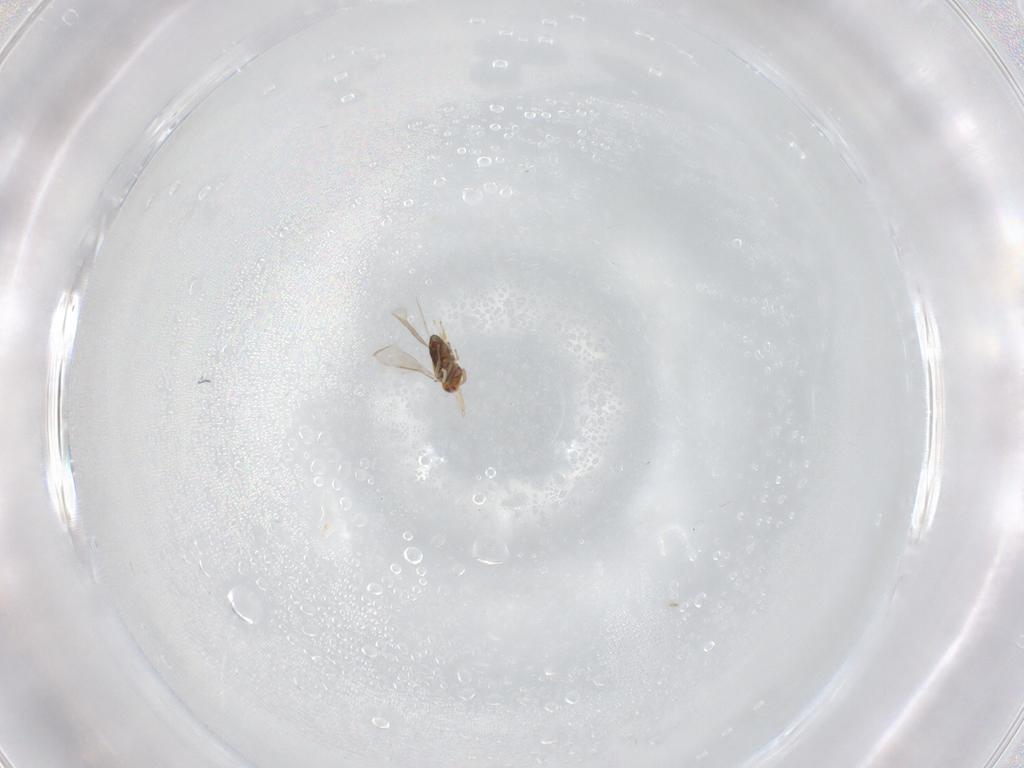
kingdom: Animalia
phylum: Arthropoda
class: Insecta
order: Hymenoptera
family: Aphelinidae
